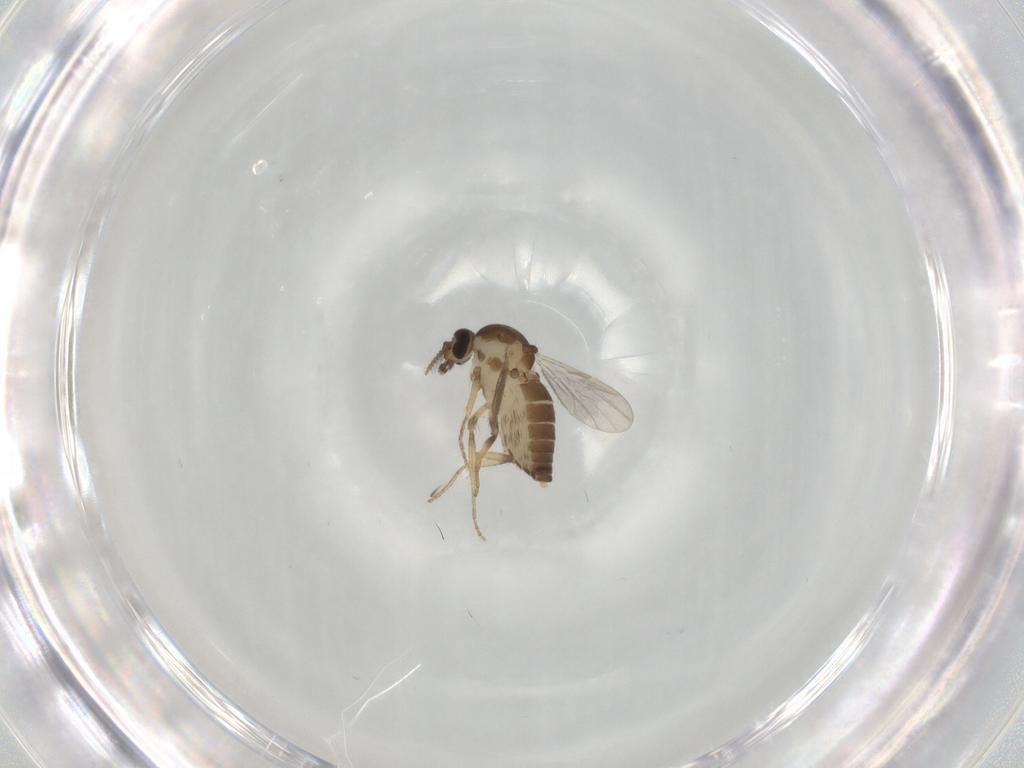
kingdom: Animalia
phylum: Arthropoda
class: Insecta
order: Diptera
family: Ceratopogonidae
